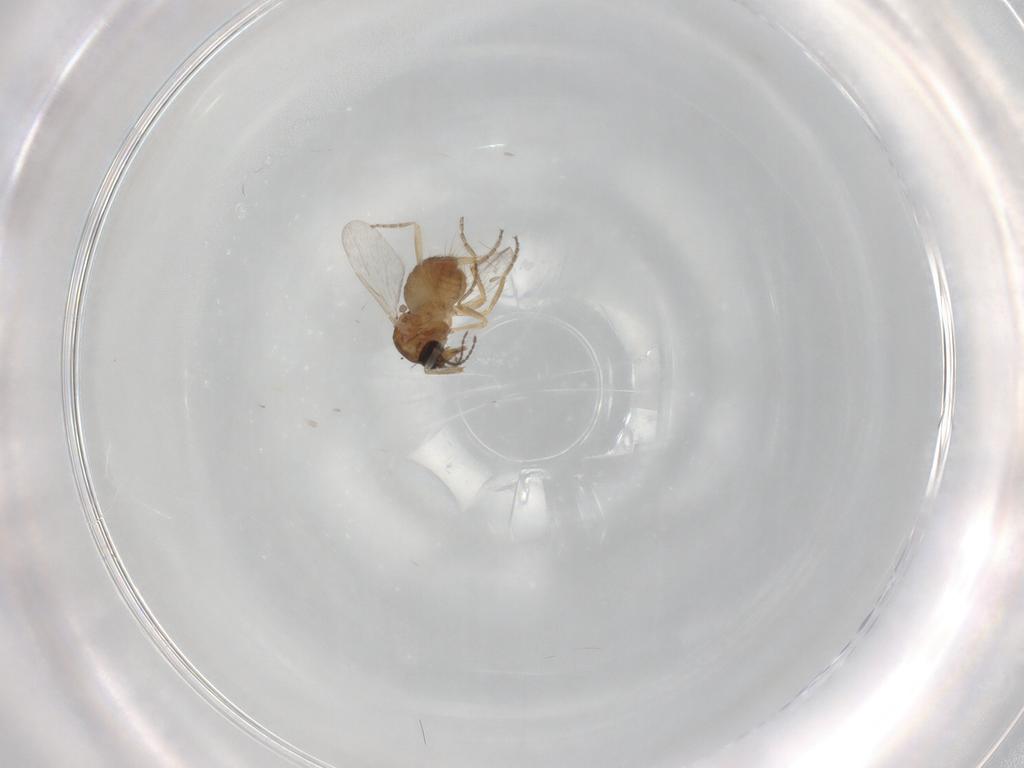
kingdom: Animalia
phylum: Arthropoda
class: Insecta
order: Diptera
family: Ceratopogonidae
